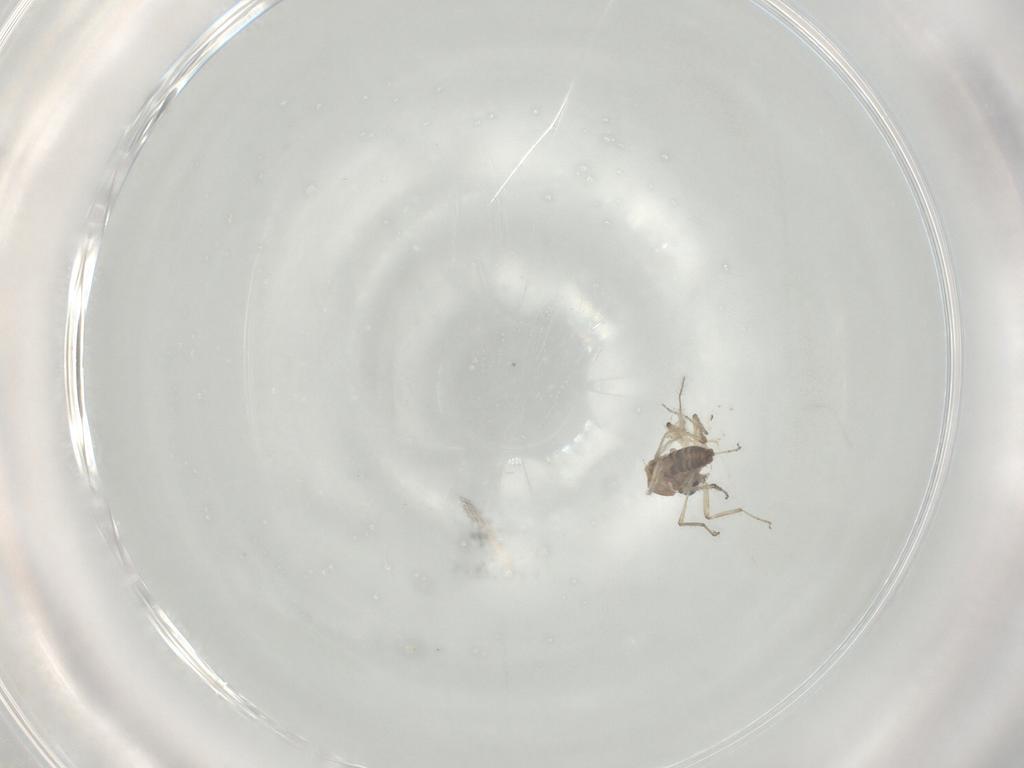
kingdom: Animalia
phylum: Arthropoda
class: Insecta
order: Diptera
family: Ceratopogonidae
